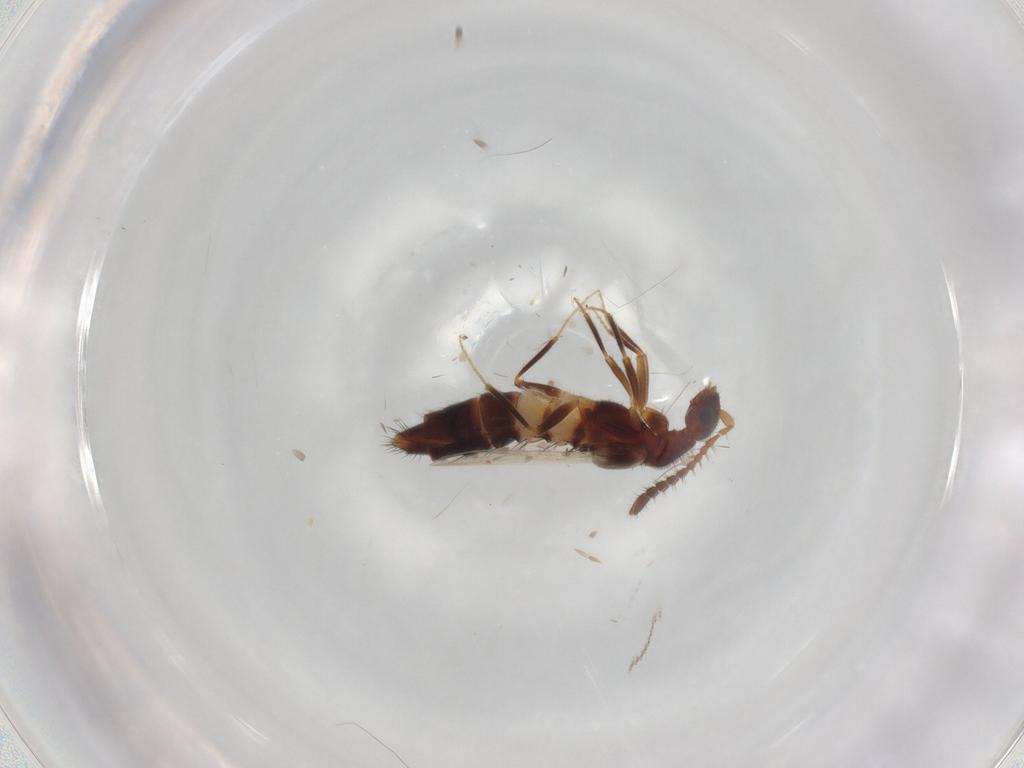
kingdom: Animalia
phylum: Arthropoda
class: Insecta
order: Coleoptera
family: Staphylinidae
